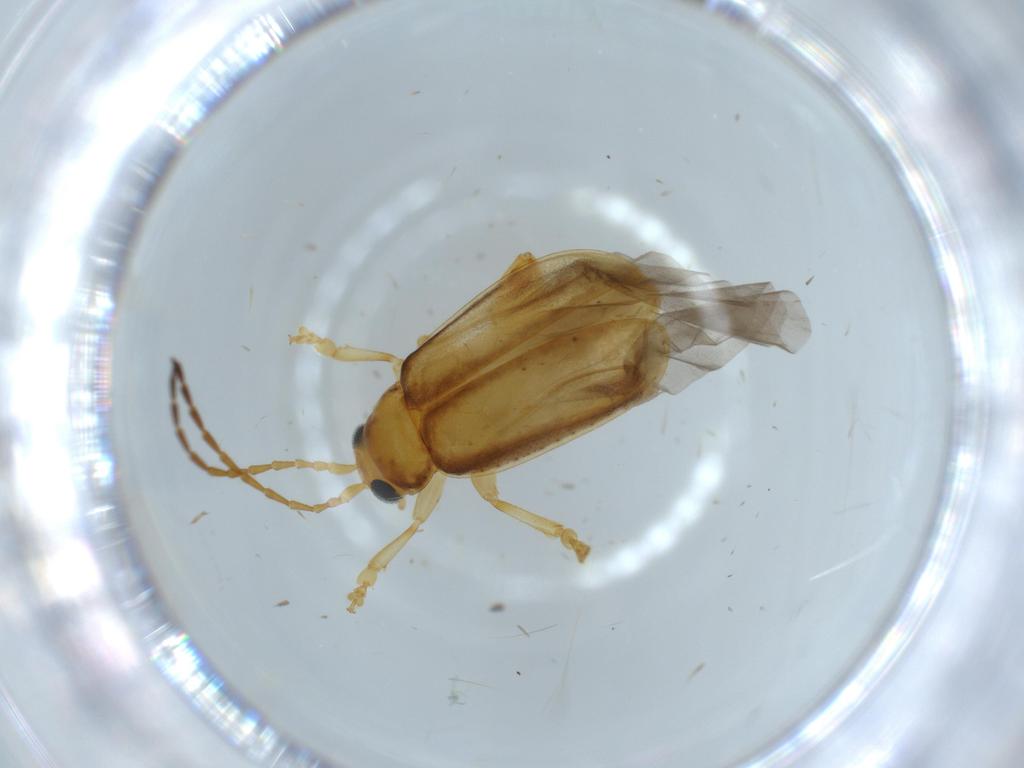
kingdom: Animalia
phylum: Arthropoda
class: Insecta
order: Coleoptera
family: Chrysomelidae
